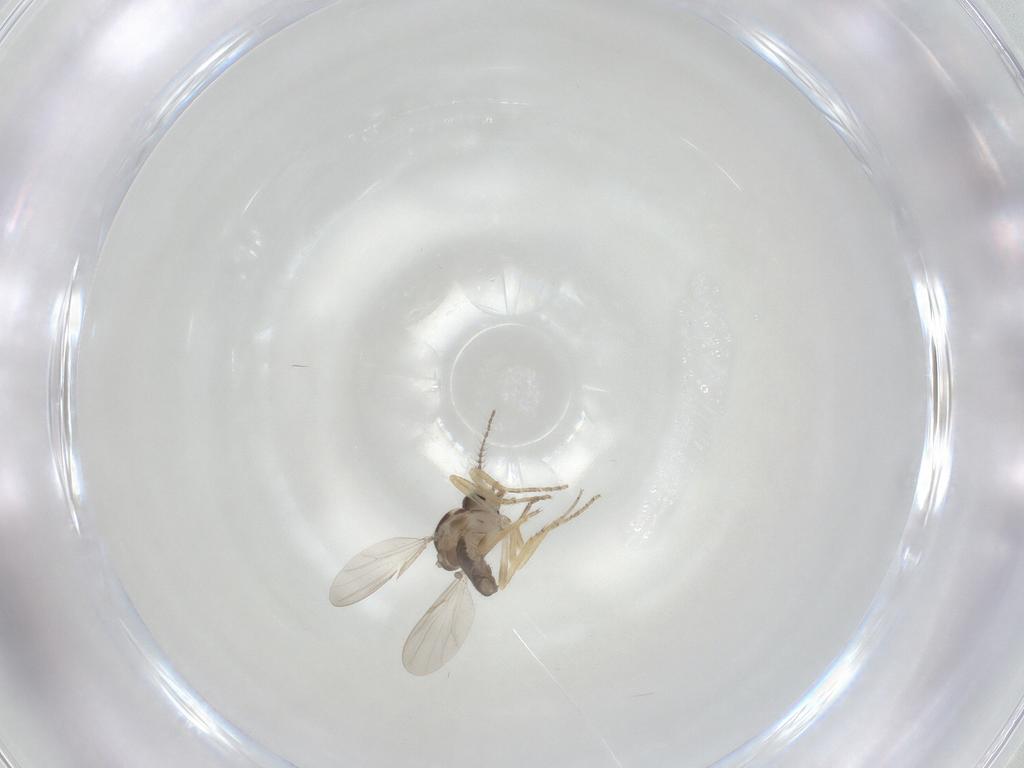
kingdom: Animalia
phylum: Arthropoda
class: Insecta
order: Diptera
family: Ceratopogonidae
